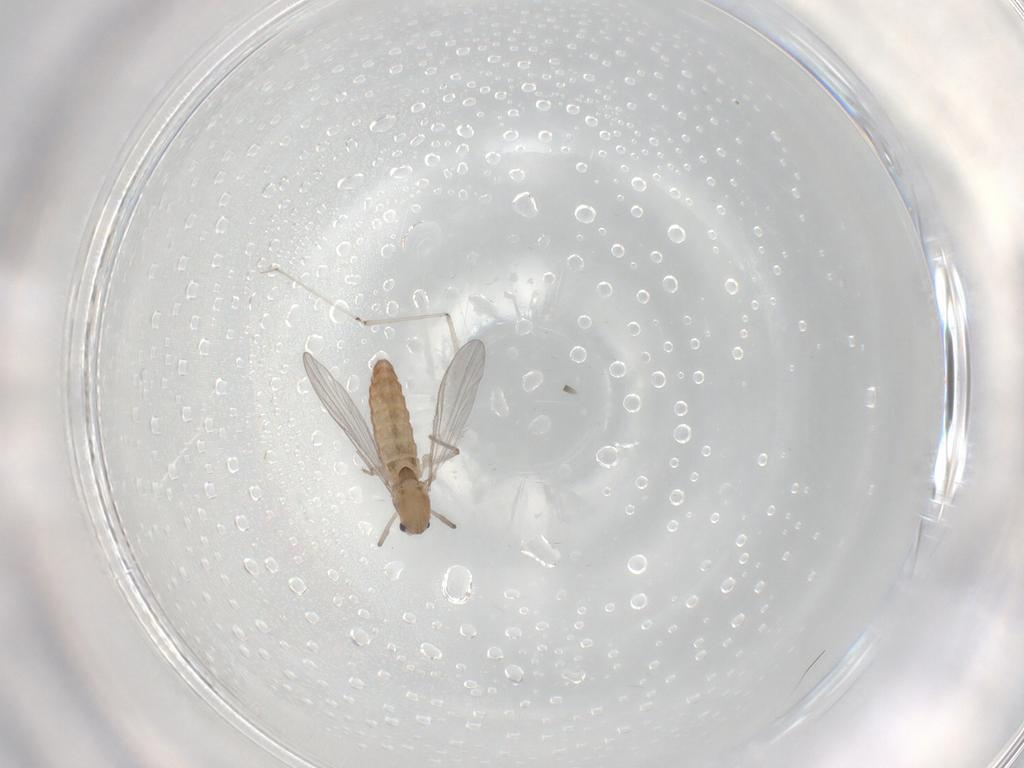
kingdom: Animalia
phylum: Arthropoda
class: Insecta
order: Diptera
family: Chironomidae
